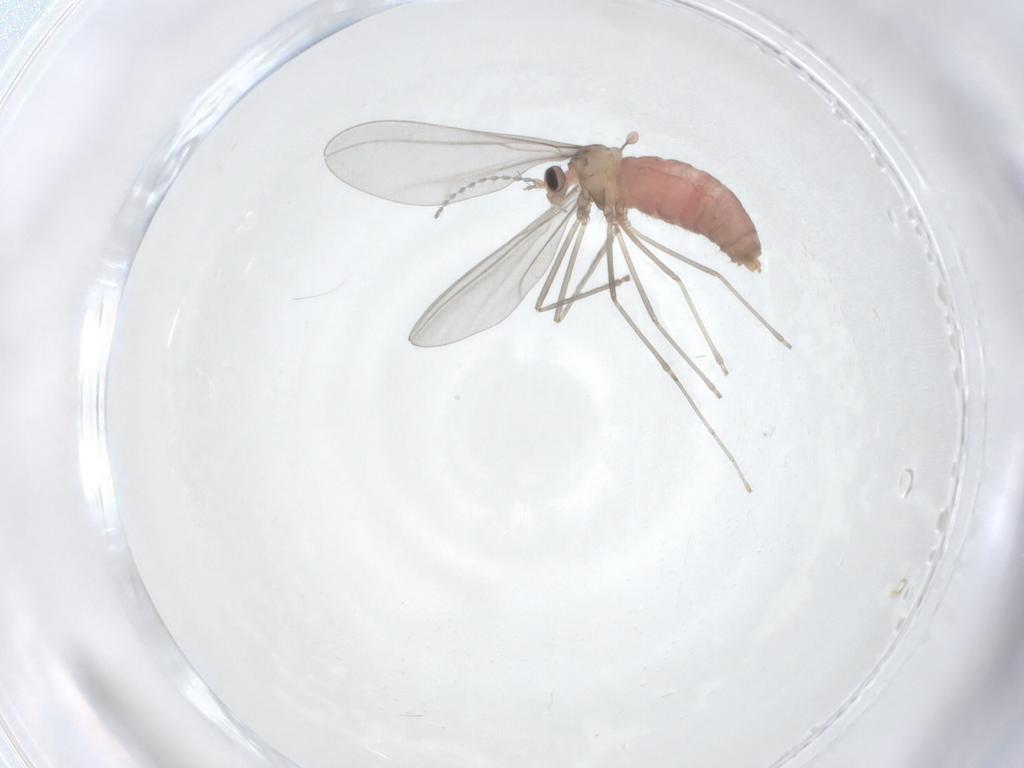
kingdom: Animalia
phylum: Arthropoda
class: Insecta
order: Diptera
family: Cecidomyiidae
